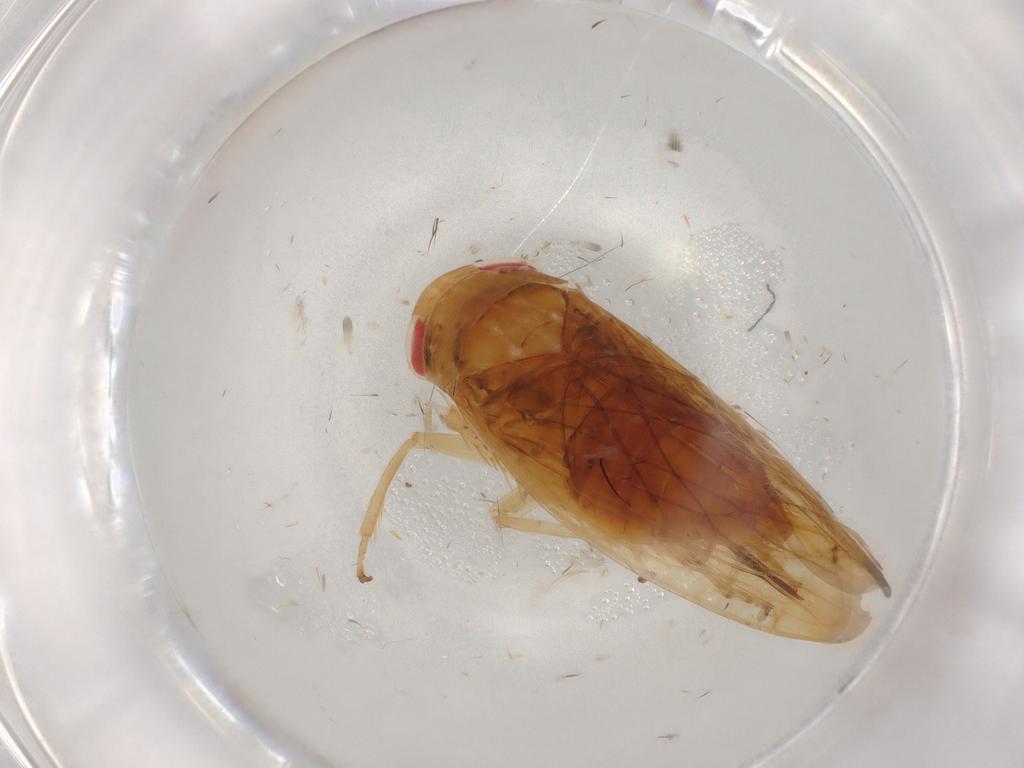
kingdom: Animalia
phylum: Arthropoda
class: Insecta
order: Hemiptera
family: Cicadellidae
